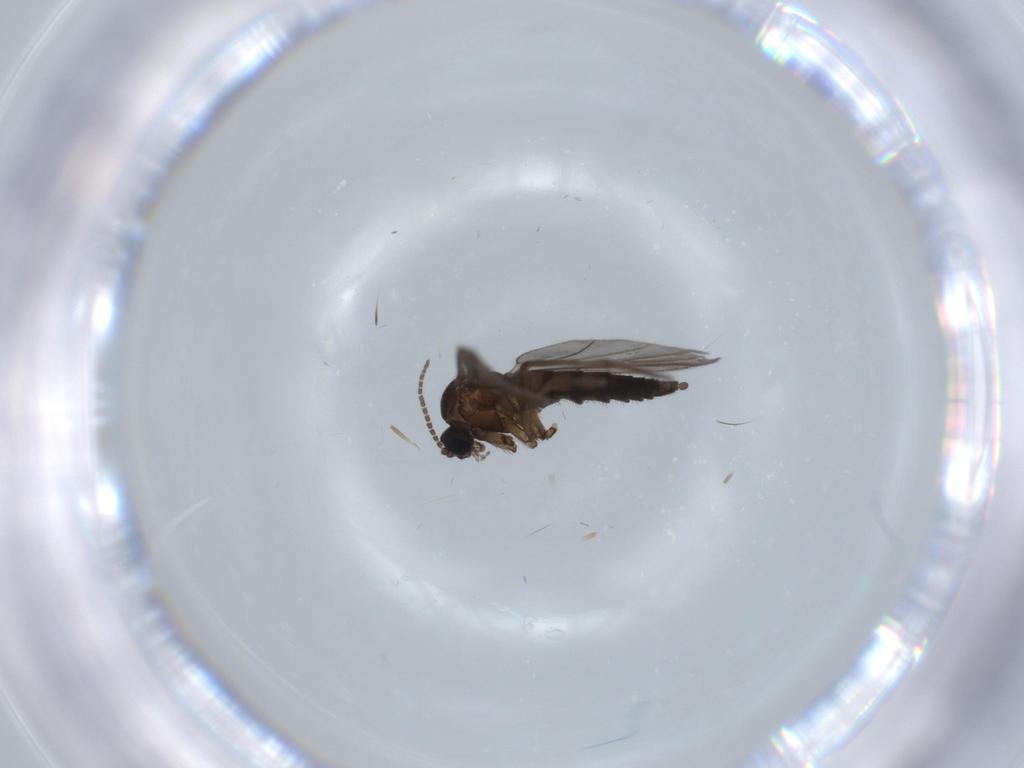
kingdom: Animalia
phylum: Arthropoda
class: Insecta
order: Diptera
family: Sciaridae
